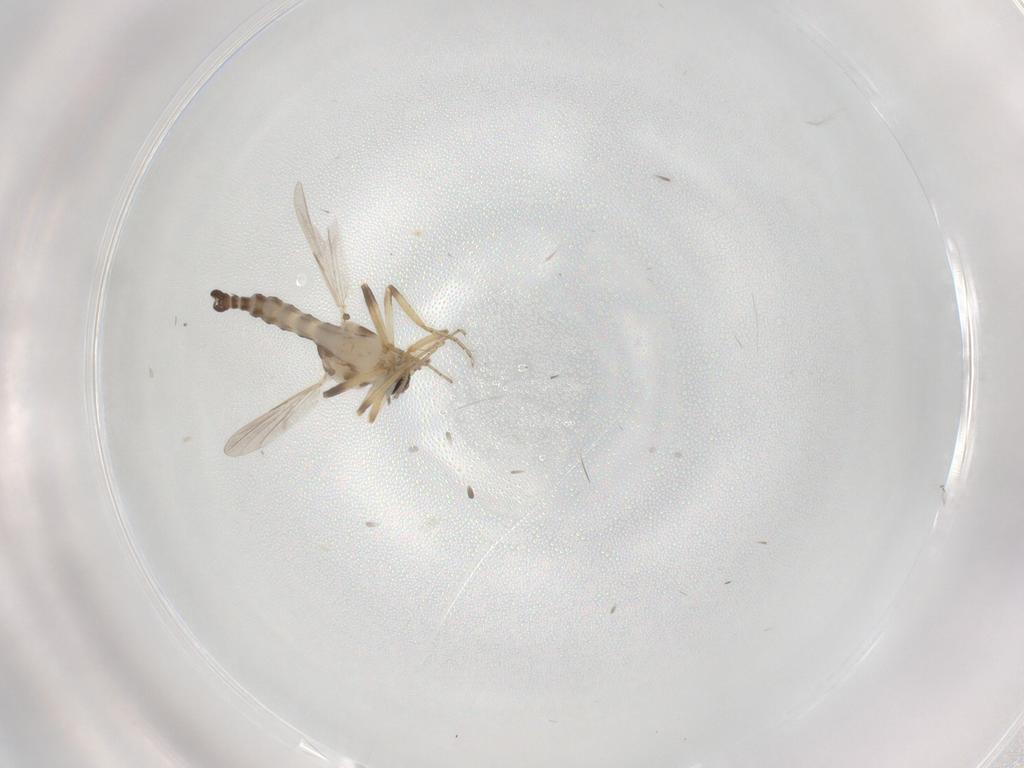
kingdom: Animalia
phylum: Arthropoda
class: Insecta
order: Diptera
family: Ceratopogonidae
